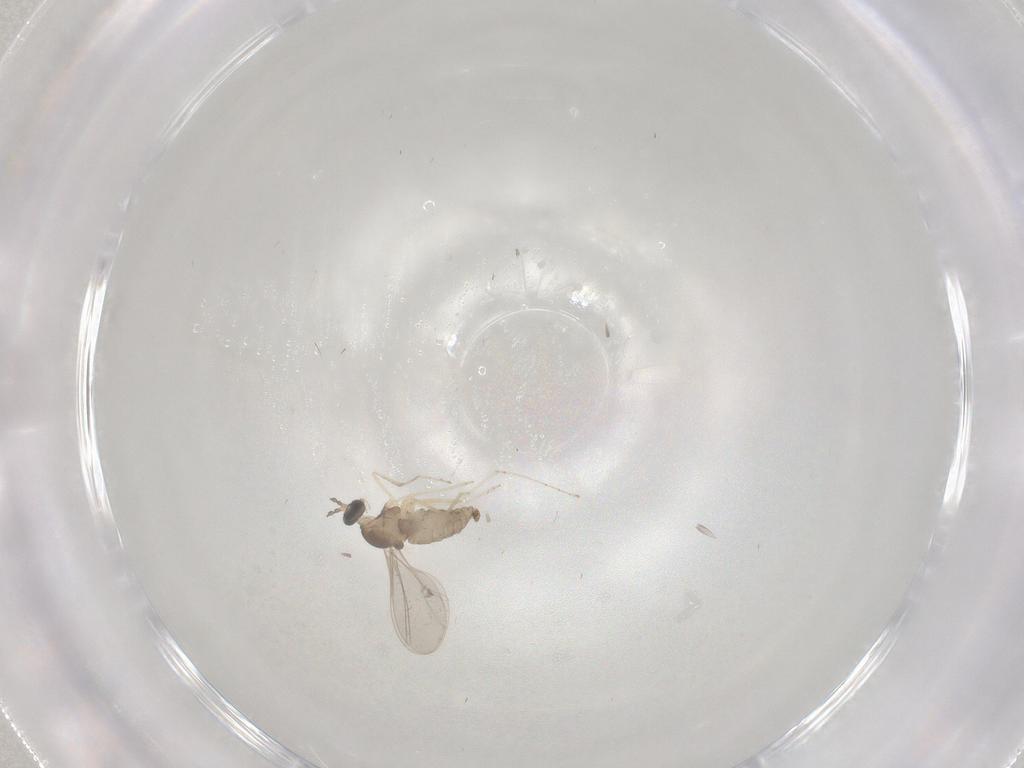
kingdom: Animalia
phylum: Arthropoda
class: Insecta
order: Diptera
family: Cecidomyiidae
